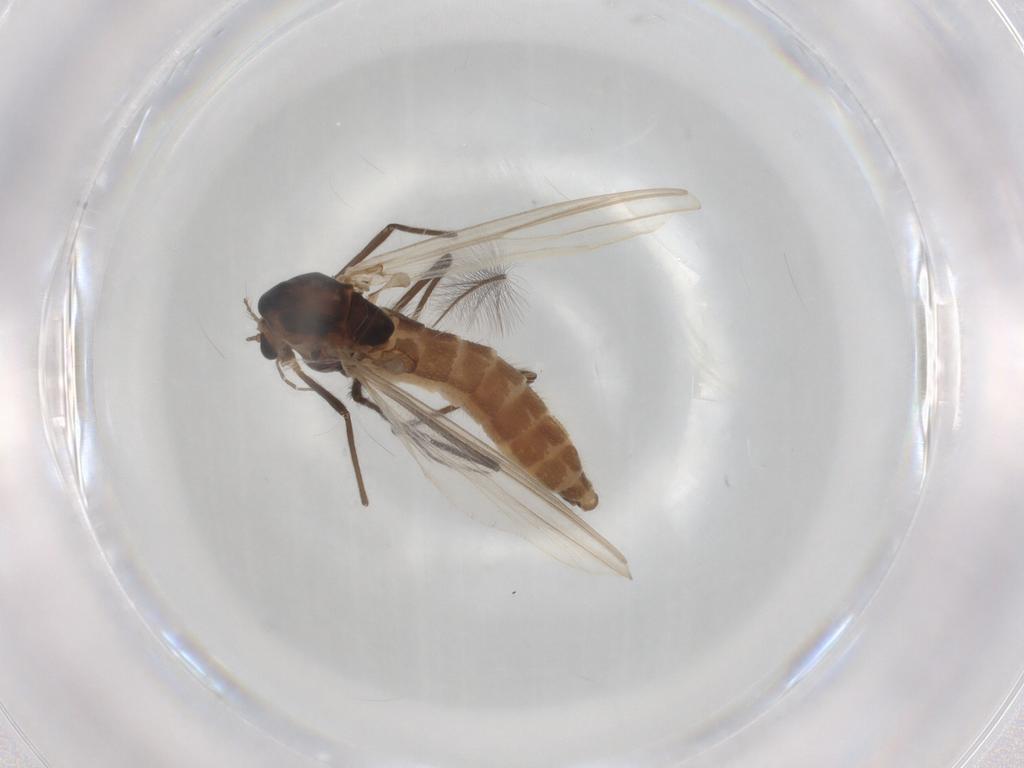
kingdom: Animalia
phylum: Arthropoda
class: Insecta
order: Diptera
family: Chironomidae
